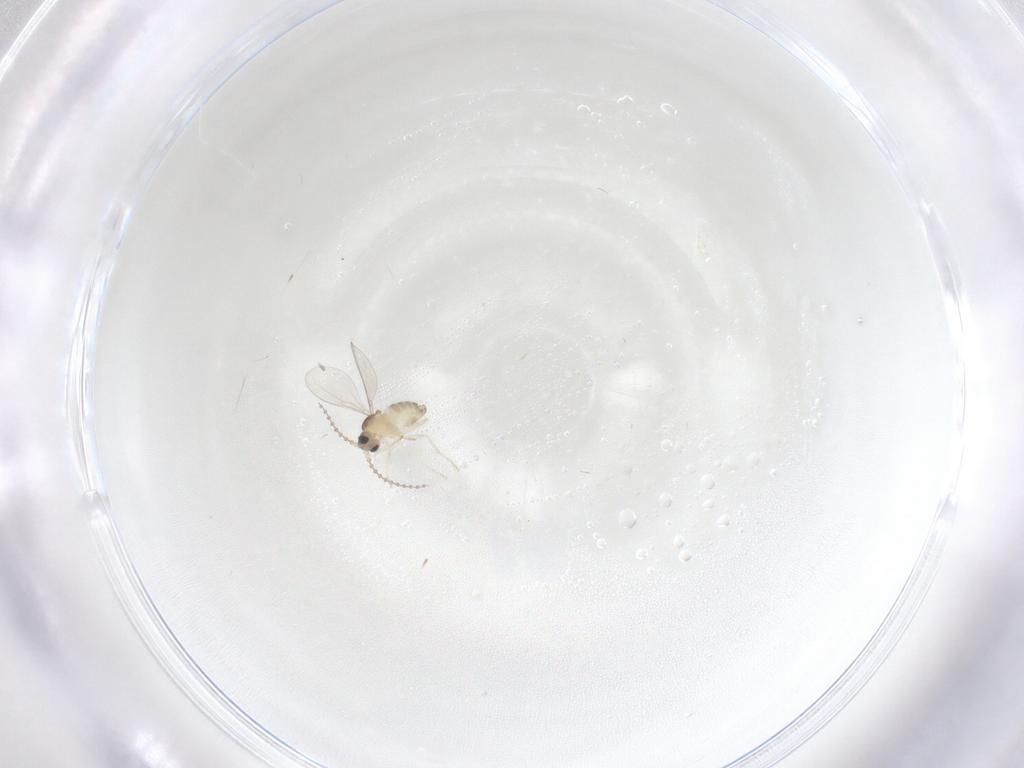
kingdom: Animalia
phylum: Arthropoda
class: Insecta
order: Diptera
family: Cecidomyiidae
